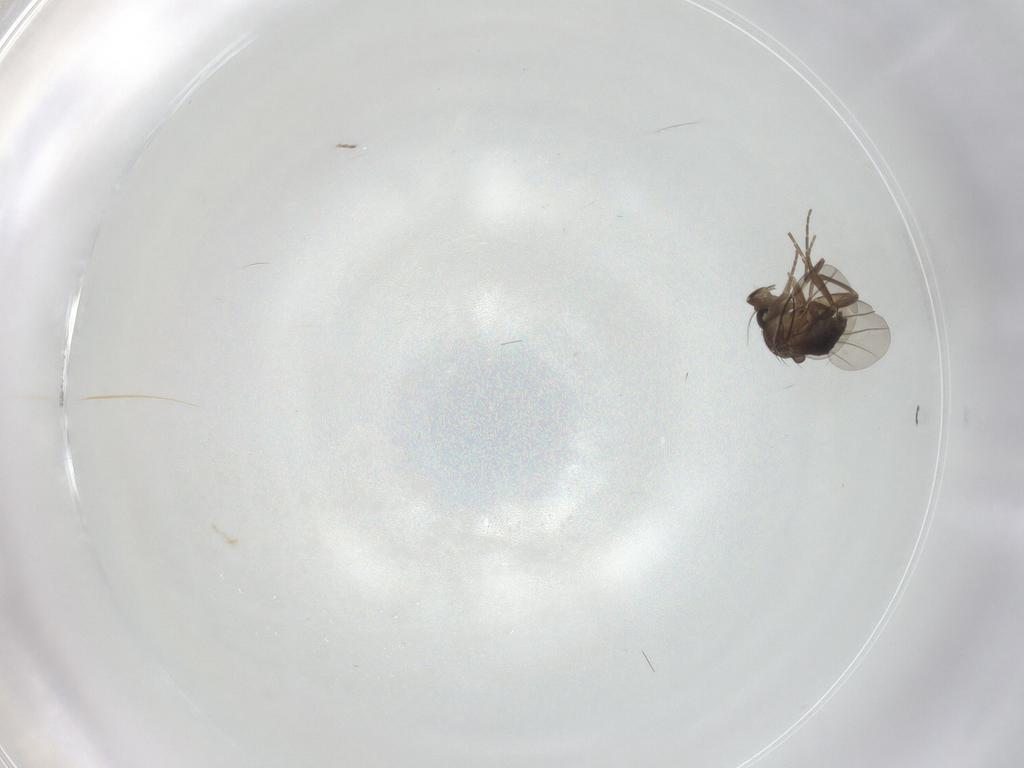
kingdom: Animalia
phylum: Arthropoda
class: Insecta
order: Diptera
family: Phoridae
